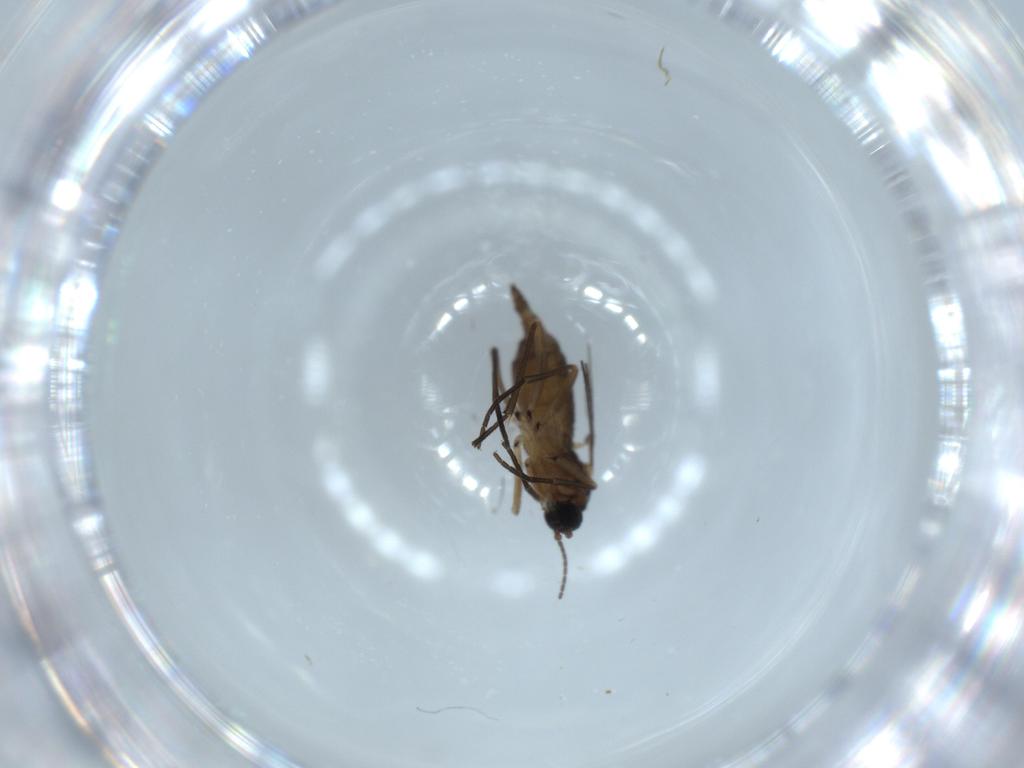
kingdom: Animalia
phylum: Arthropoda
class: Insecta
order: Diptera
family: Sciaridae
